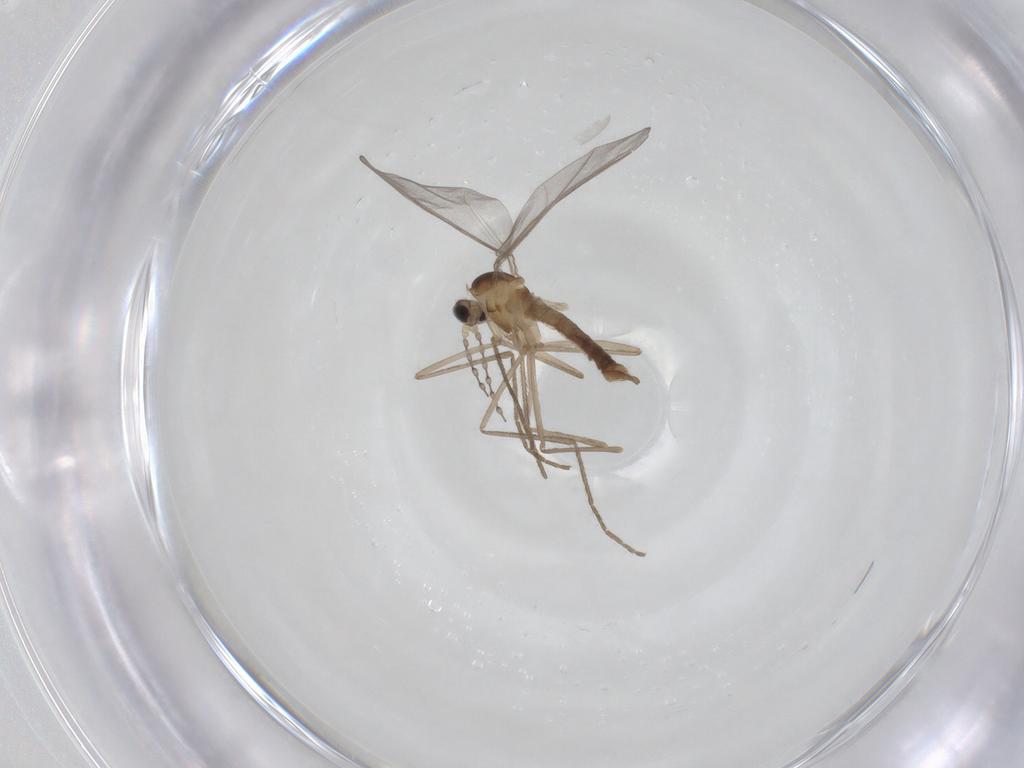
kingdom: Animalia
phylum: Arthropoda
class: Insecta
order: Diptera
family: Cecidomyiidae
